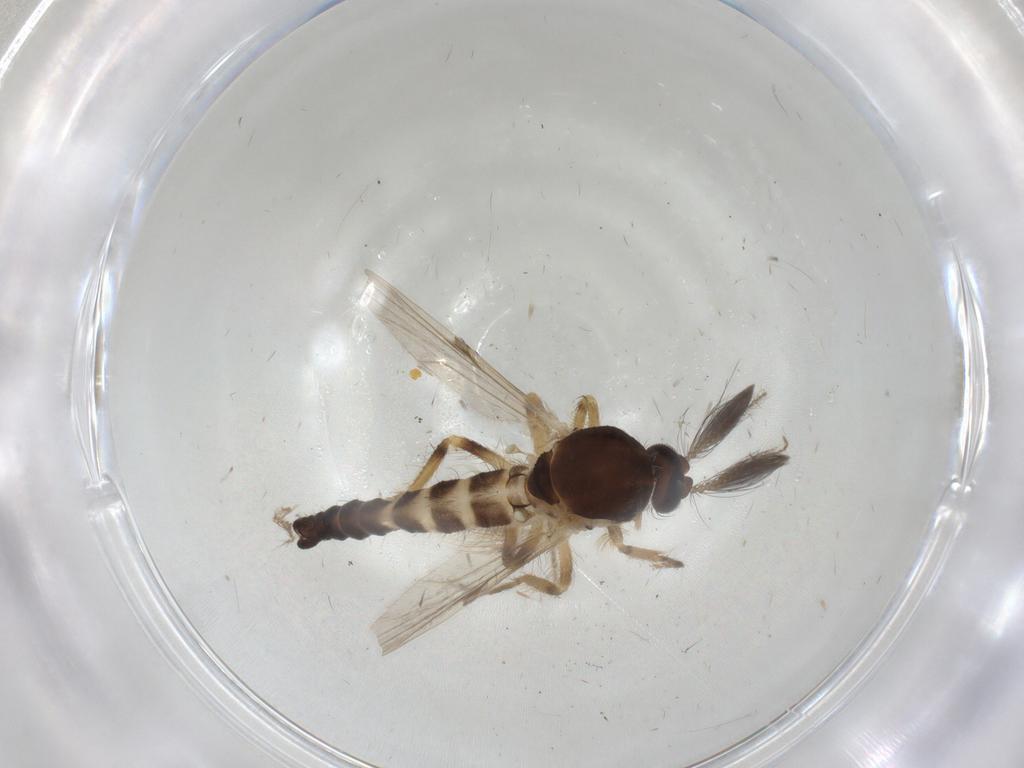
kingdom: Animalia
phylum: Arthropoda
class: Insecta
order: Diptera
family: Ceratopogonidae
